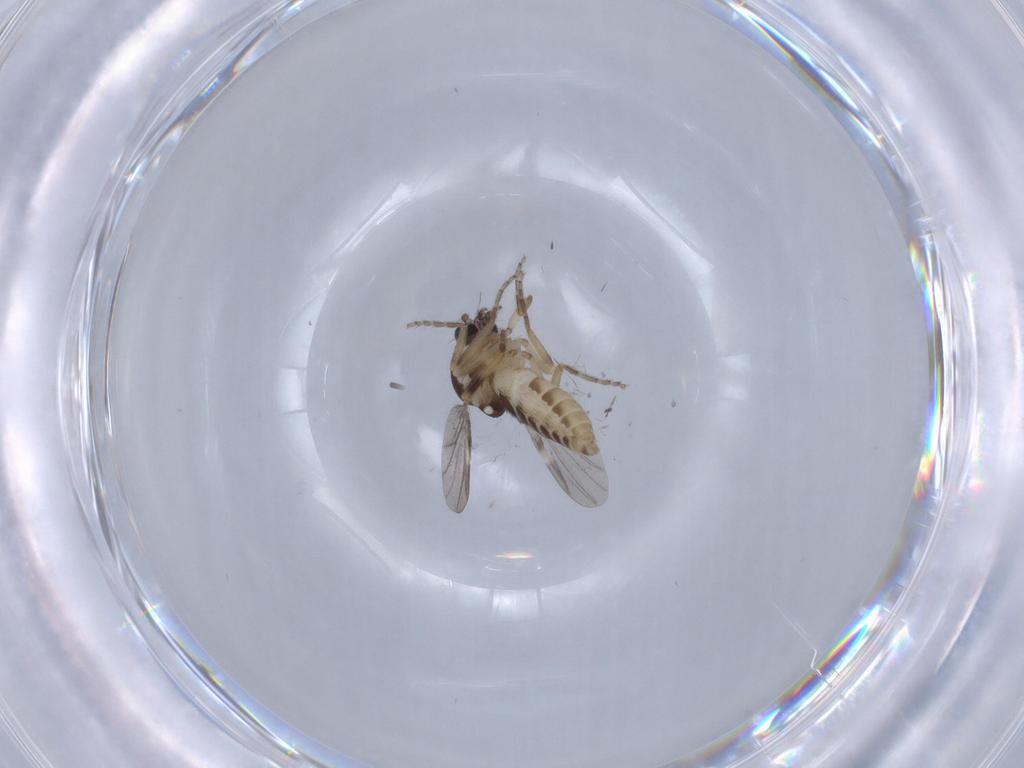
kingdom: Animalia
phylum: Arthropoda
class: Insecta
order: Diptera
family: Ceratopogonidae
